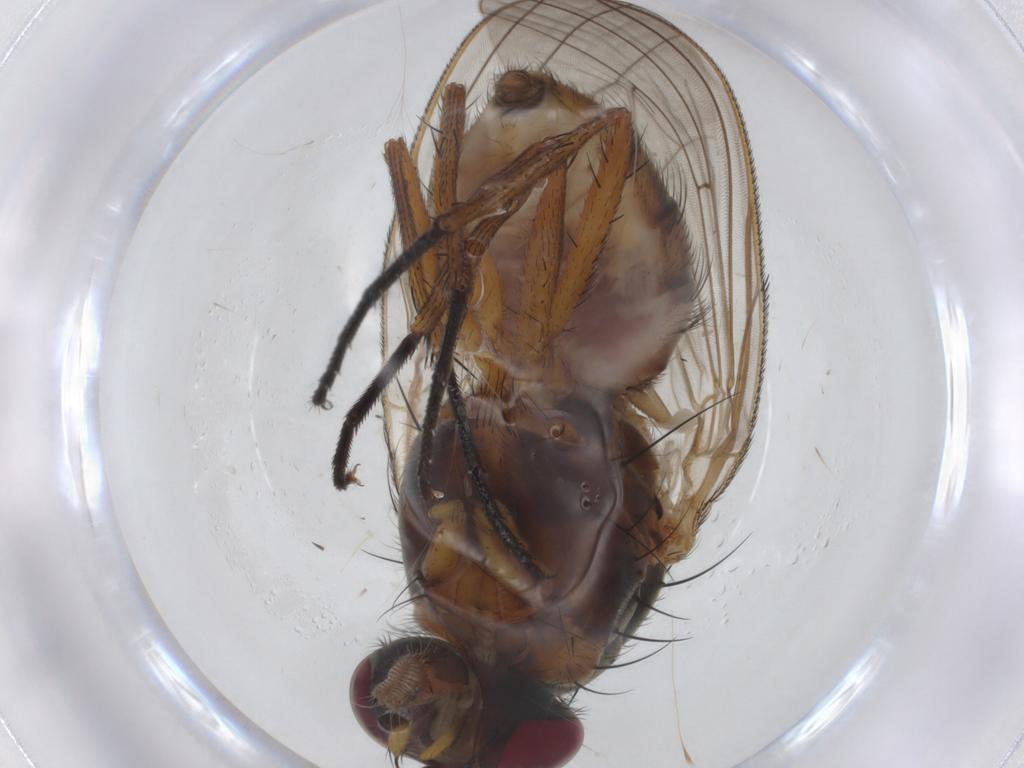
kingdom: Animalia
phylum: Arthropoda
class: Insecta
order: Diptera
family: Anthomyiidae
